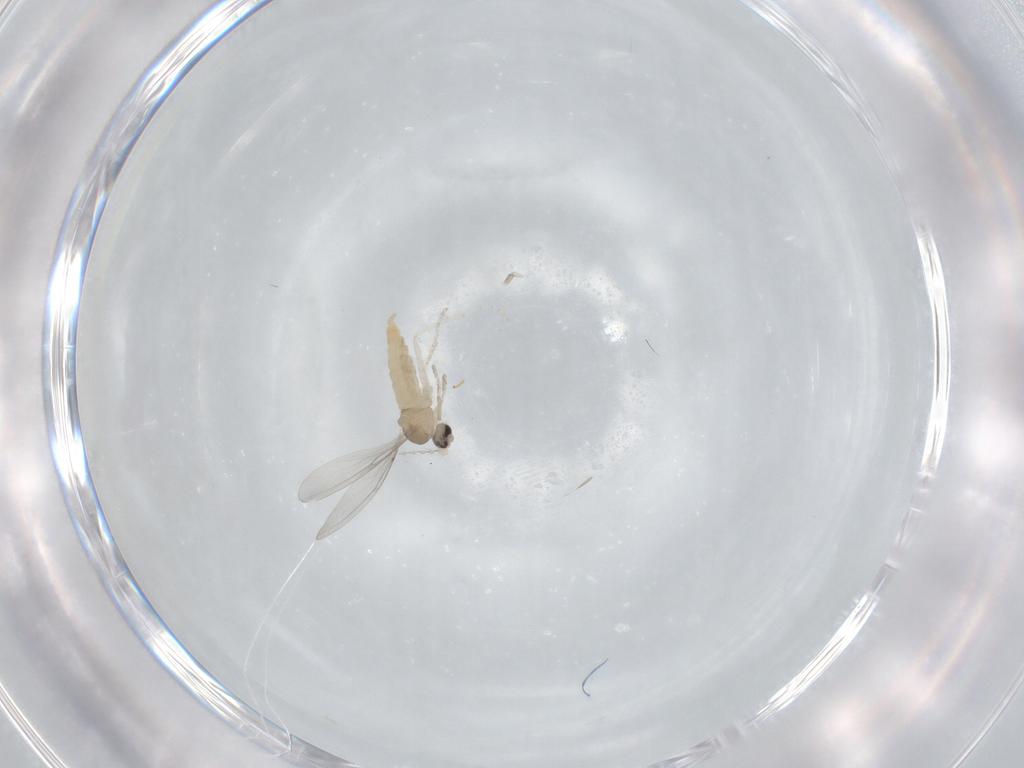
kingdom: Animalia
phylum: Arthropoda
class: Insecta
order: Diptera
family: Cecidomyiidae
